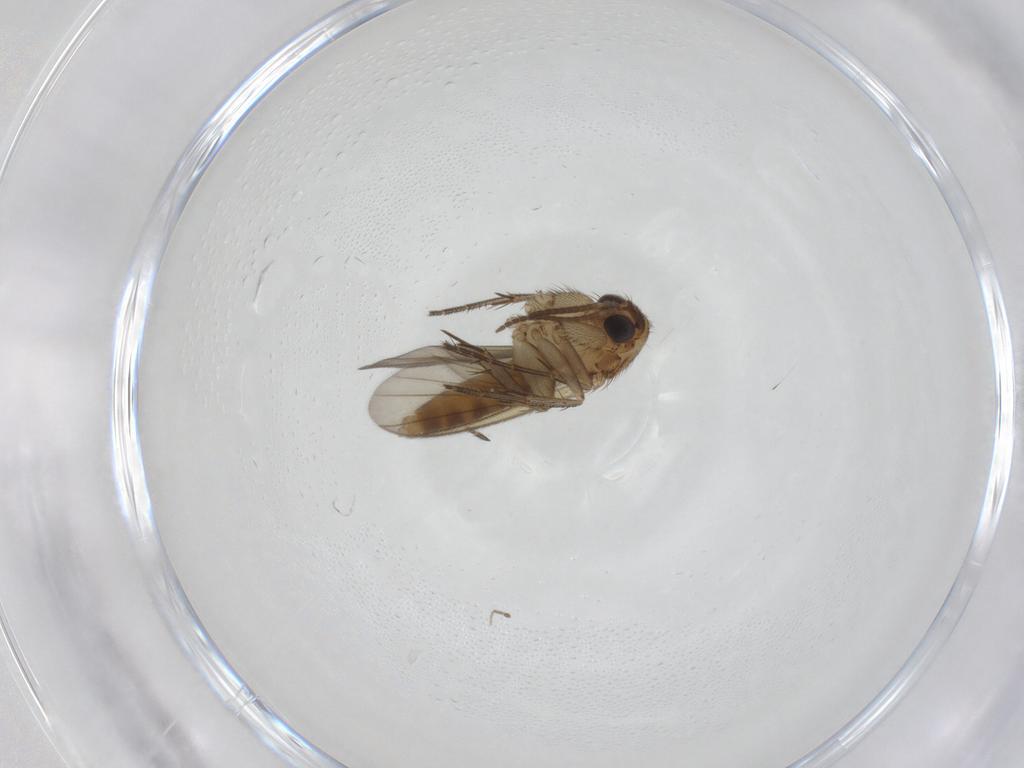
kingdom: Animalia
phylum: Arthropoda
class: Insecta
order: Diptera
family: Chironomidae
